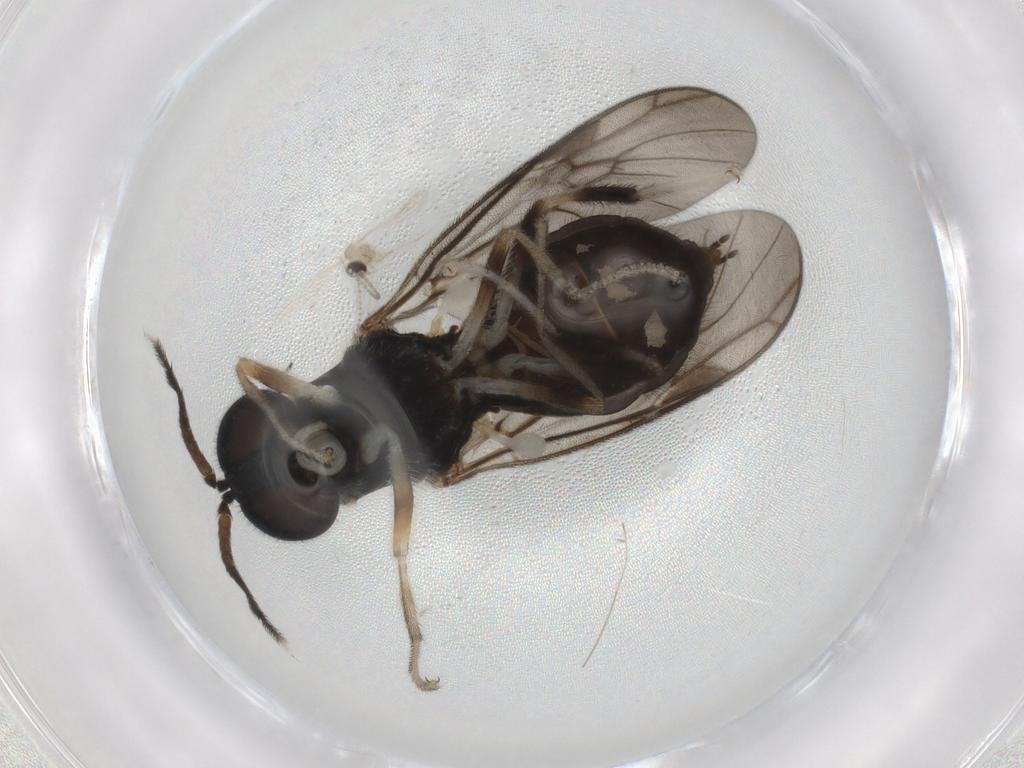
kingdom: Animalia
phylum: Arthropoda
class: Insecta
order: Diptera
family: Stratiomyidae
